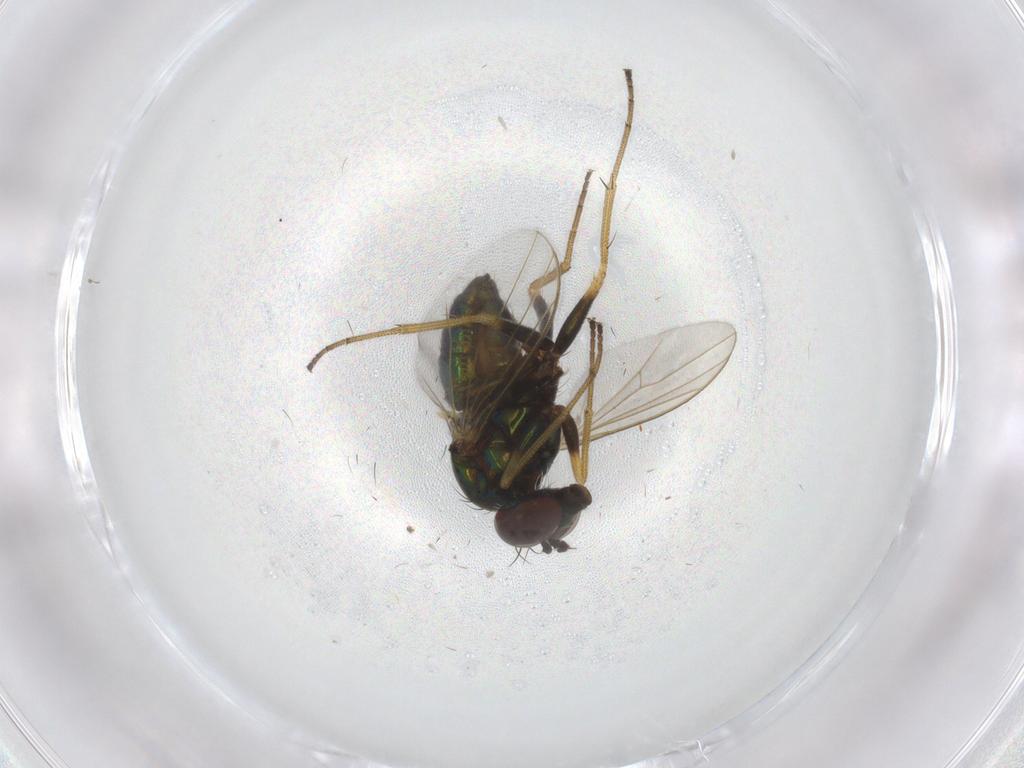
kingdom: Animalia
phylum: Arthropoda
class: Insecta
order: Diptera
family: Dolichopodidae
